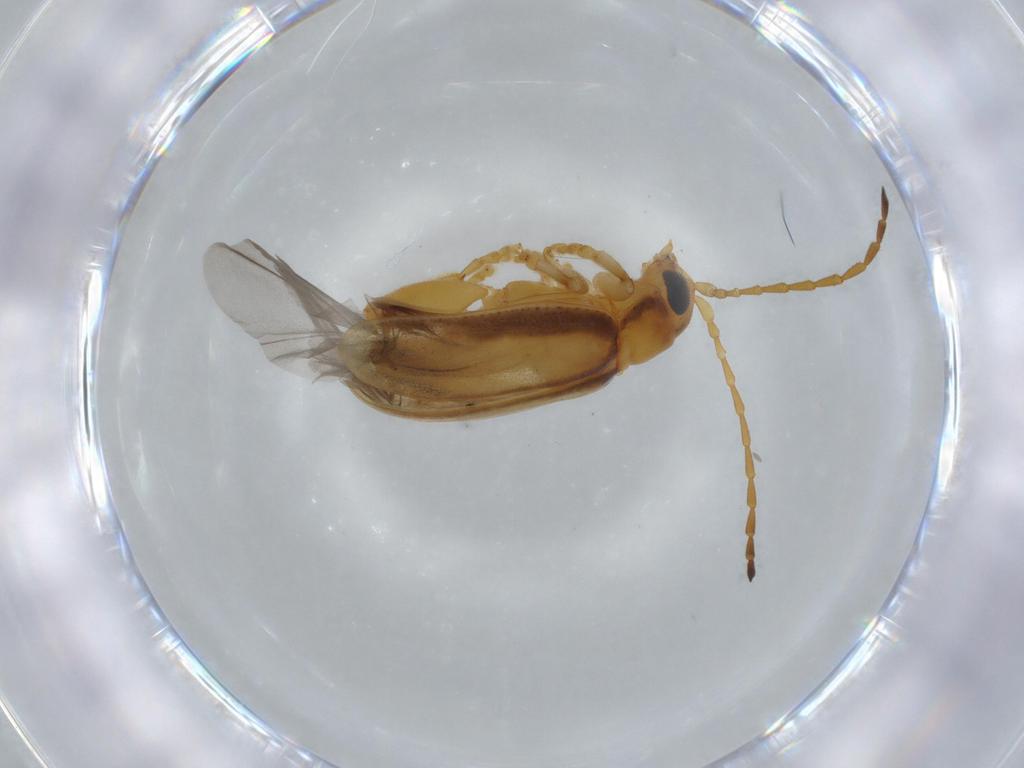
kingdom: Animalia
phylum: Arthropoda
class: Insecta
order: Coleoptera
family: Chrysomelidae
